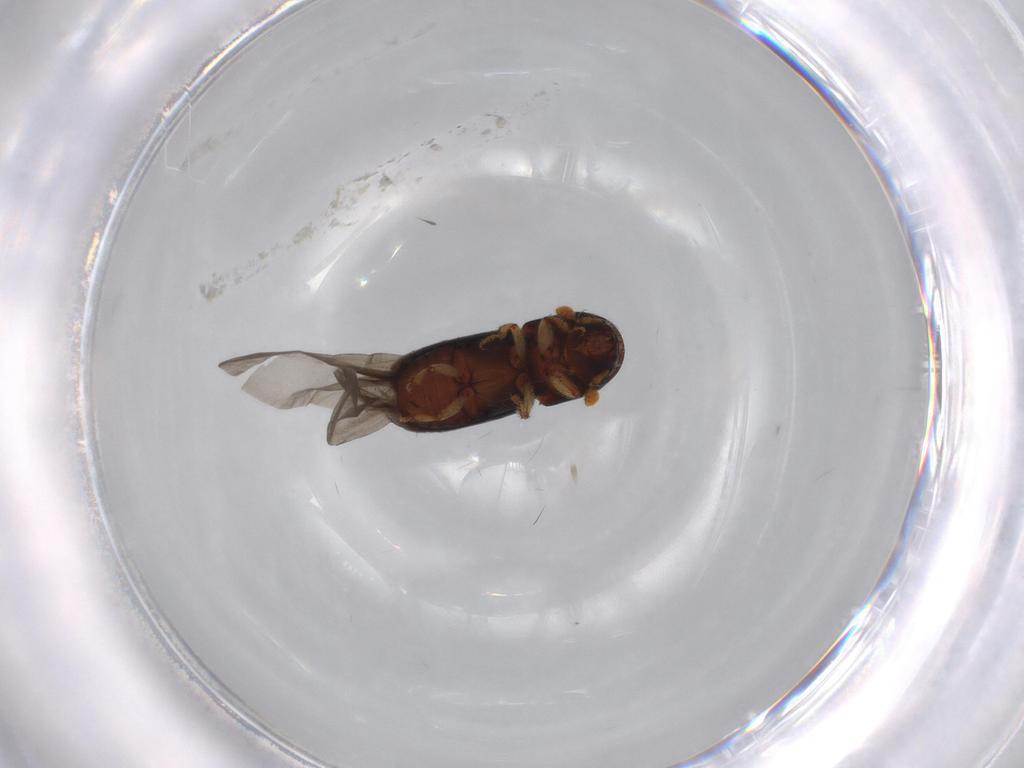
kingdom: Animalia
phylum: Arthropoda
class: Insecta
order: Coleoptera
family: Curculionidae
